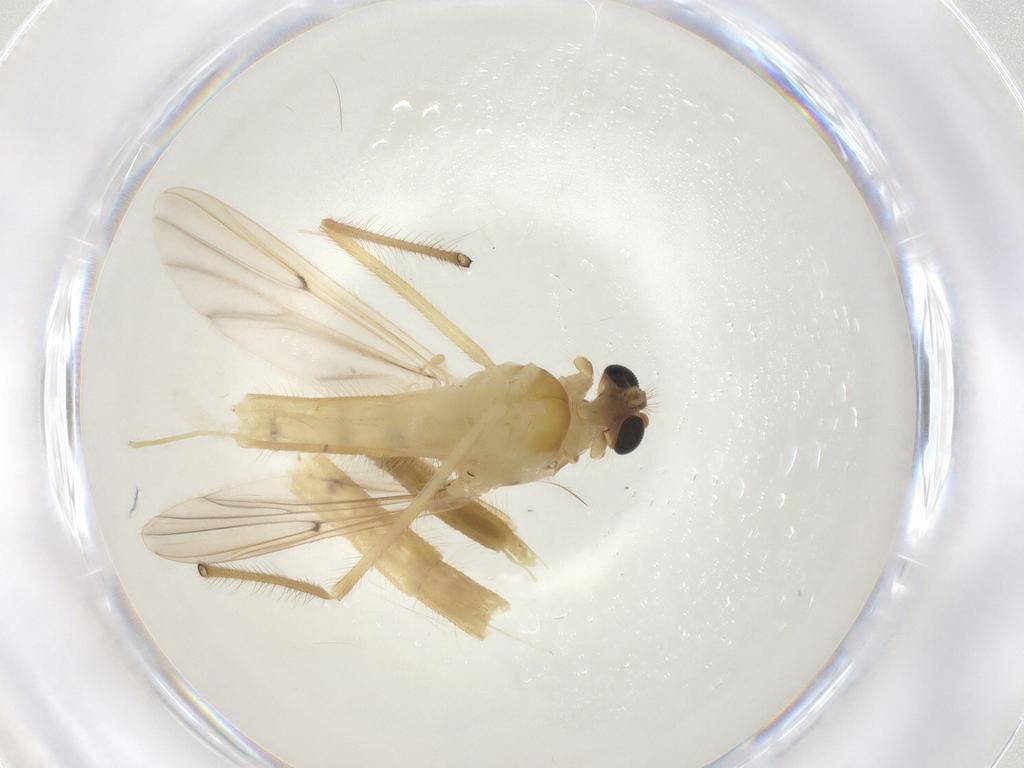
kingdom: Animalia
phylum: Arthropoda
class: Insecta
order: Diptera
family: Chironomidae
